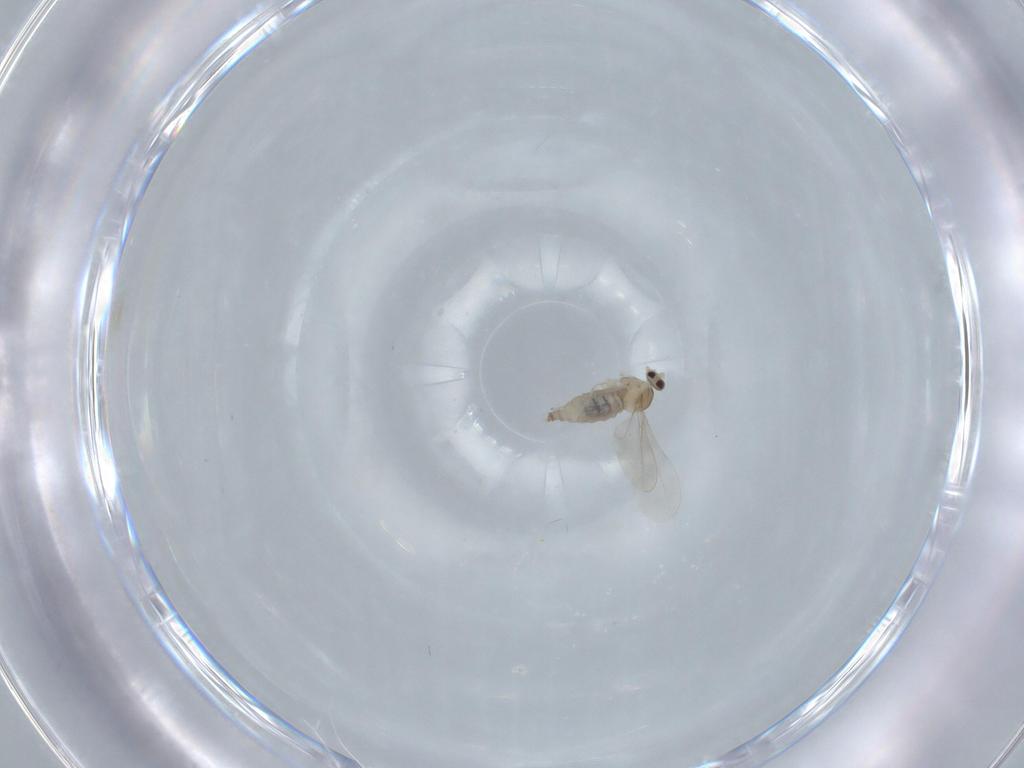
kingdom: Animalia
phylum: Arthropoda
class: Insecta
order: Diptera
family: Cecidomyiidae
